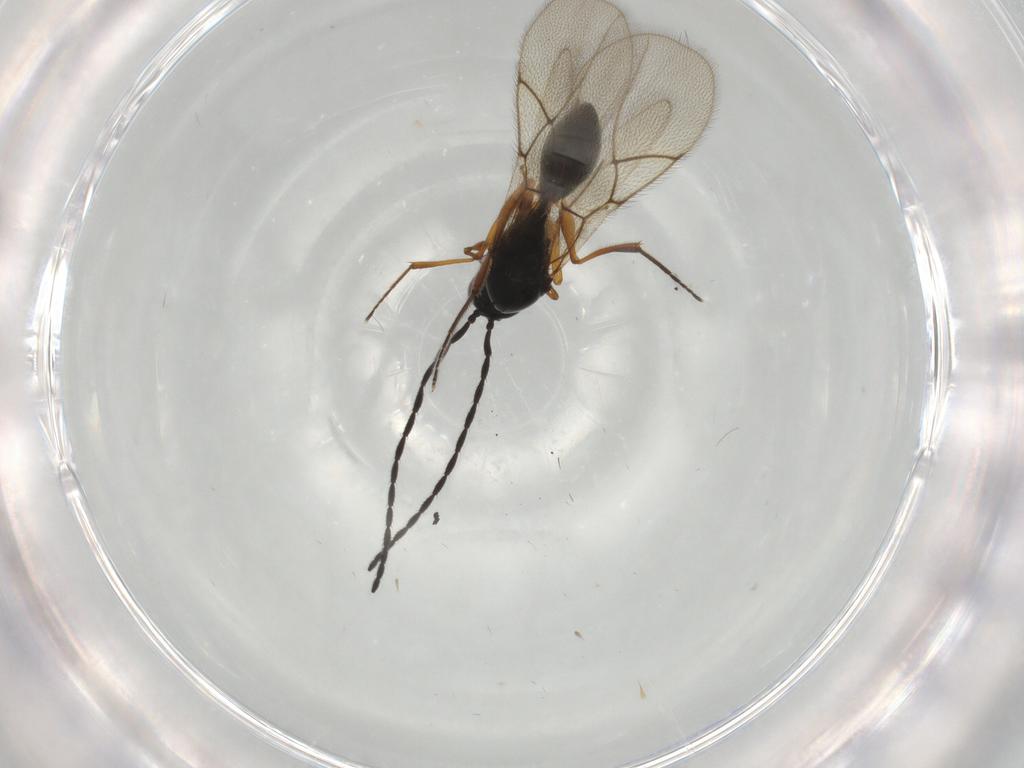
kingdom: Animalia
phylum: Arthropoda
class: Insecta
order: Hymenoptera
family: Figitidae
